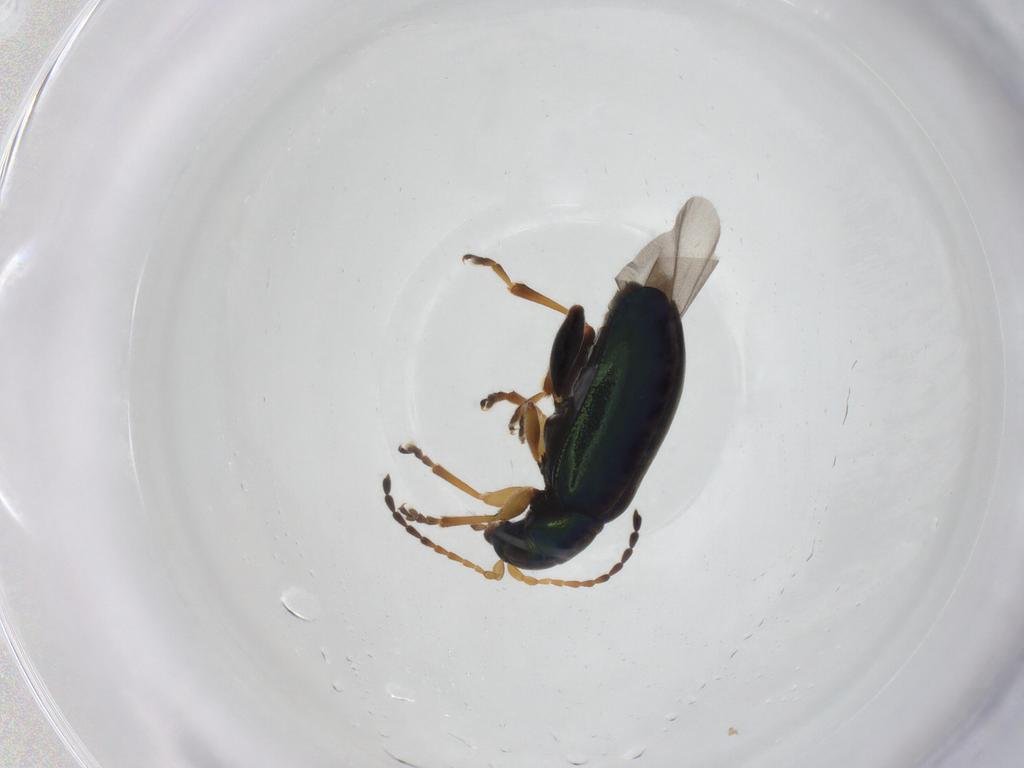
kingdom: Animalia
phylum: Arthropoda
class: Insecta
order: Coleoptera
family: Chrysomelidae
